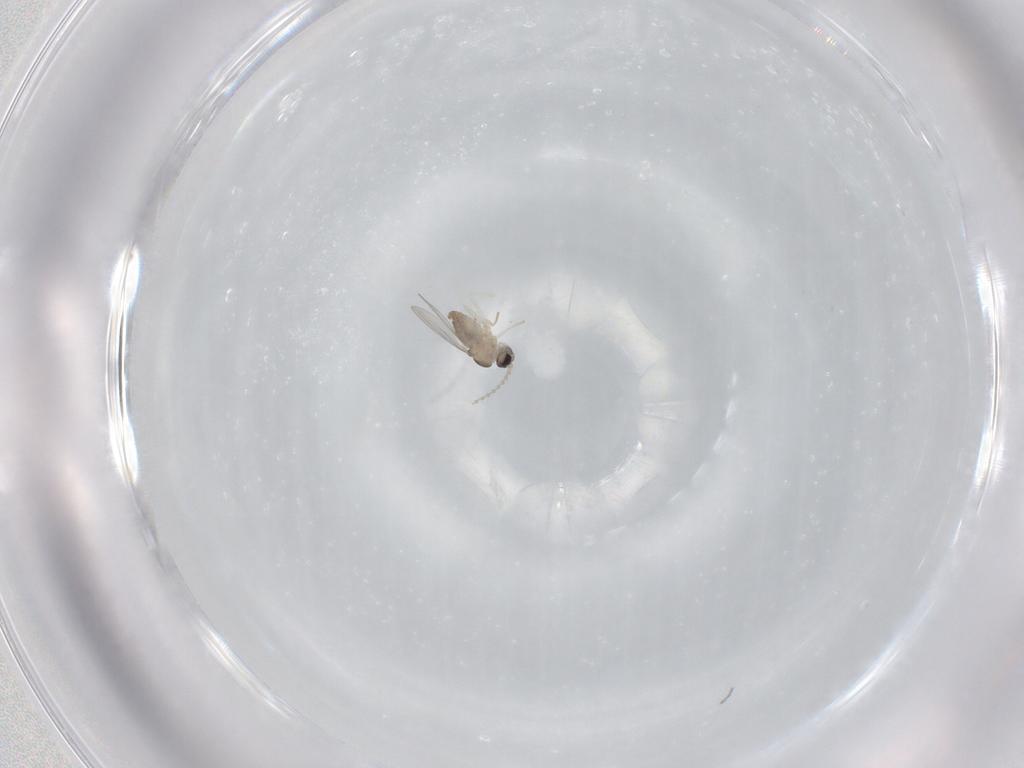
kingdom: Animalia
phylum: Arthropoda
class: Insecta
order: Diptera
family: Cecidomyiidae
